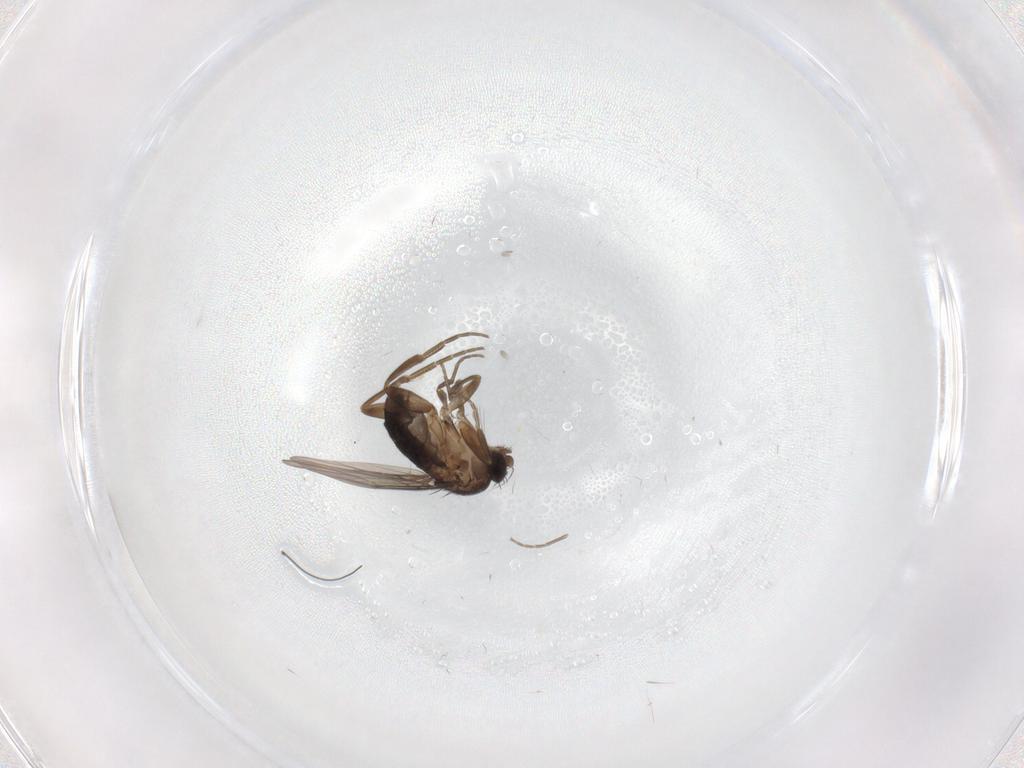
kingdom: Animalia
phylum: Arthropoda
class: Insecta
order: Diptera
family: Phoridae
